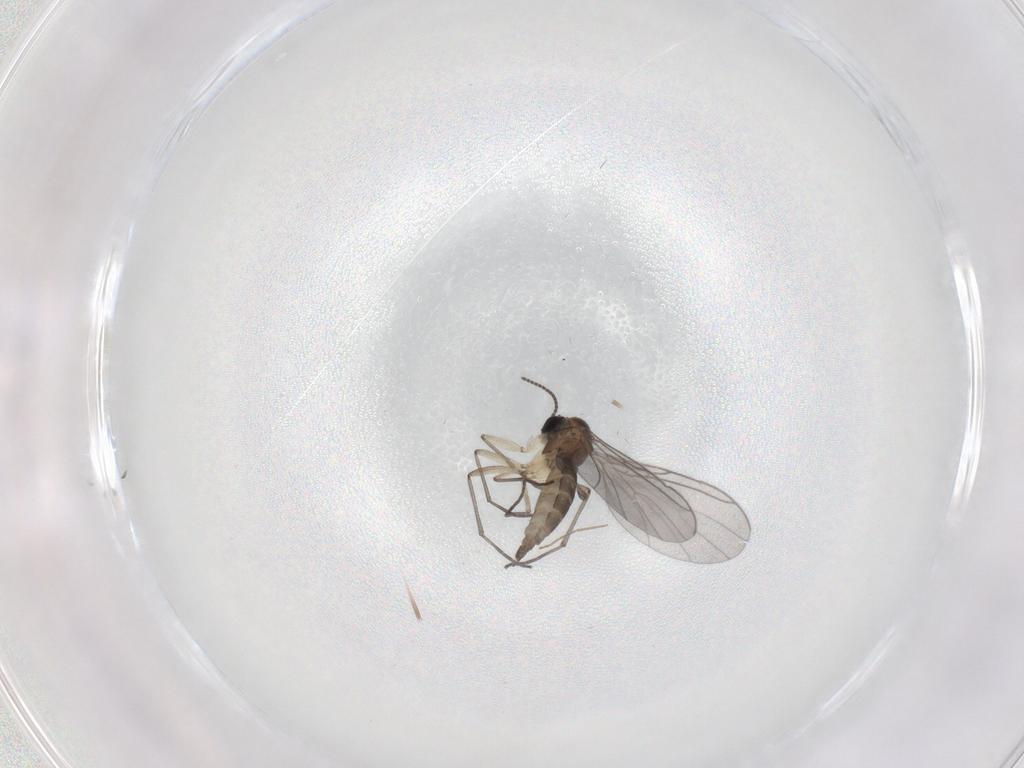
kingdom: Animalia
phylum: Arthropoda
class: Insecta
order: Diptera
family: Sciaridae
